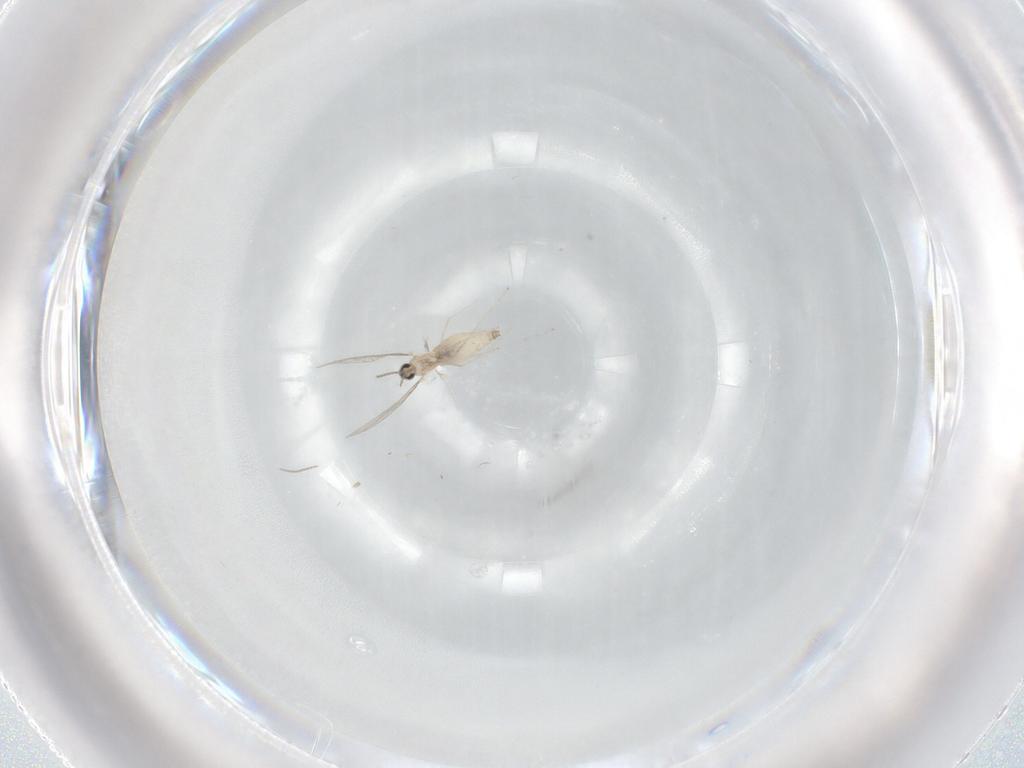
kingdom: Animalia
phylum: Arthropoda
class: Insecta
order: Diptera
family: Cecidomyiidae
